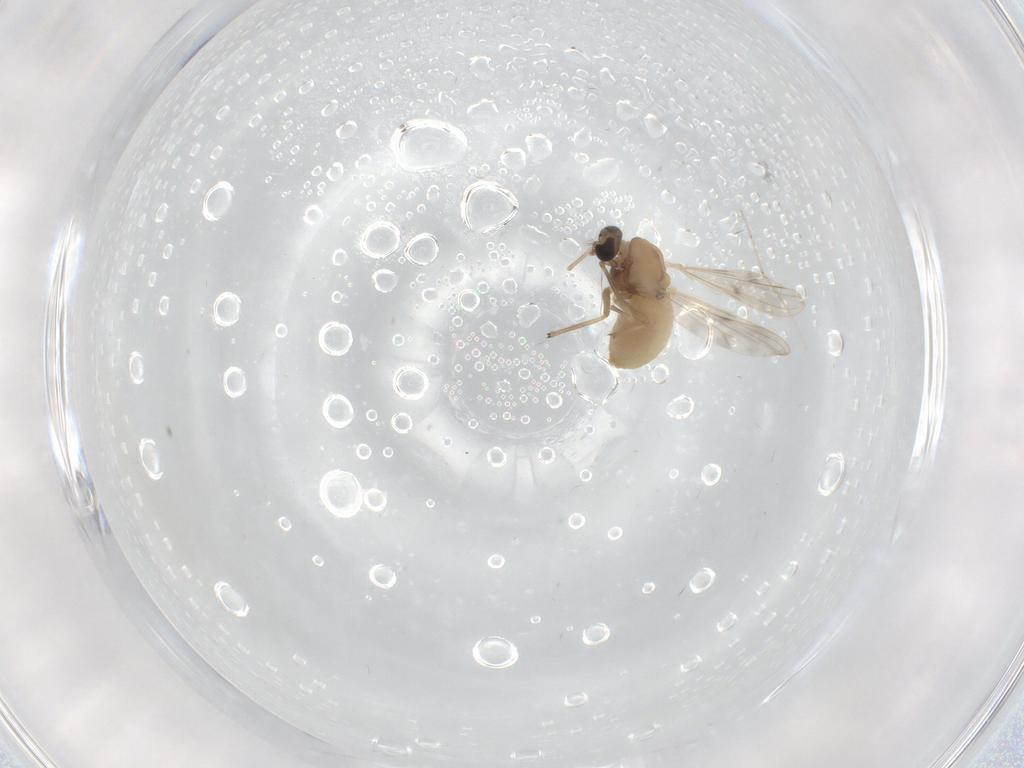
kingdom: Animalia
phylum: Arthropoda
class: Insecta
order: Diptera
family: Chironomidae
